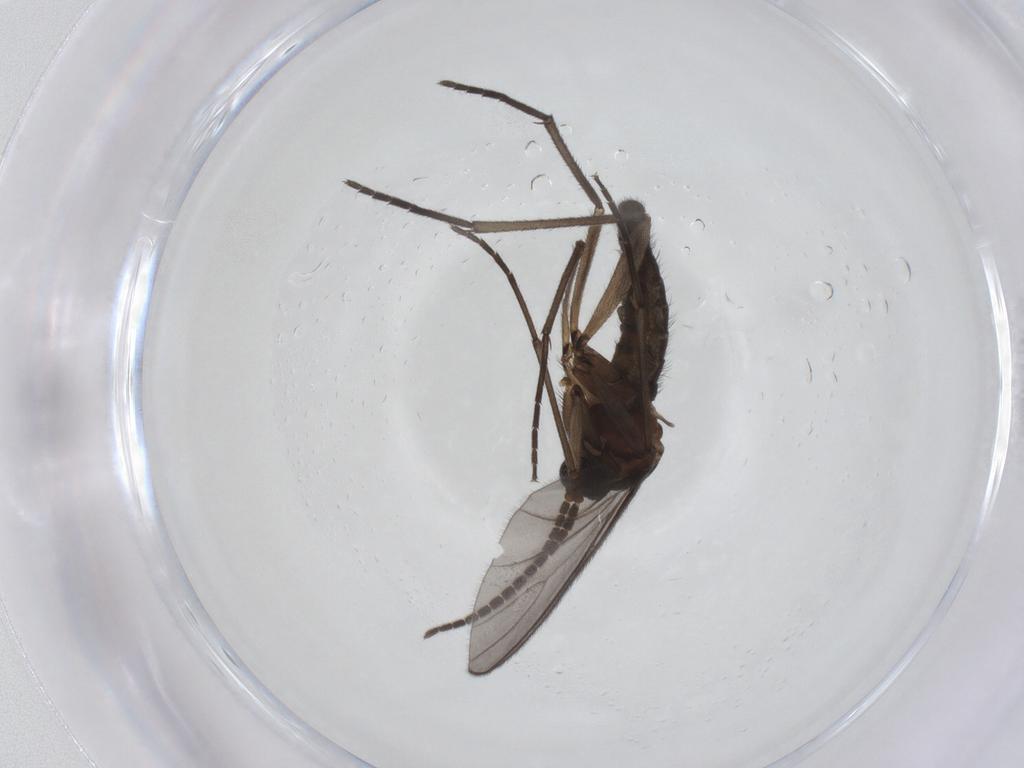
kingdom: Animalia
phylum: Arthropoda
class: Insecta
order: Diptera
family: Sciaridae
